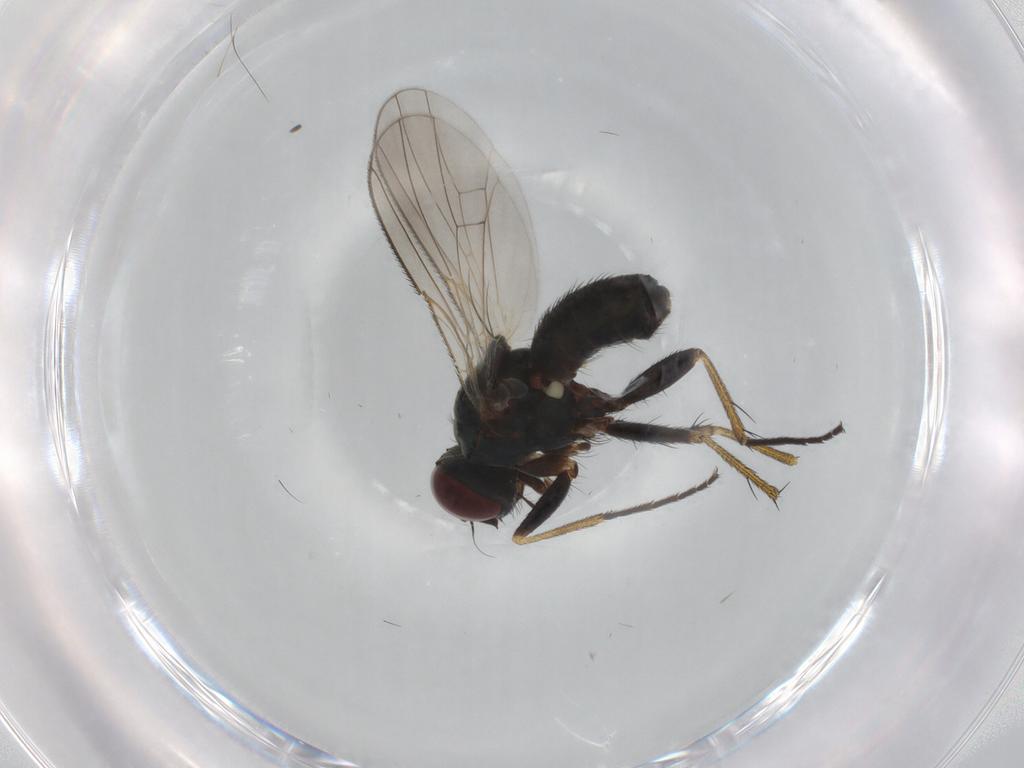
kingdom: Animalia
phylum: Arthropoda
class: Insecta
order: Diptera
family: Muscidae
